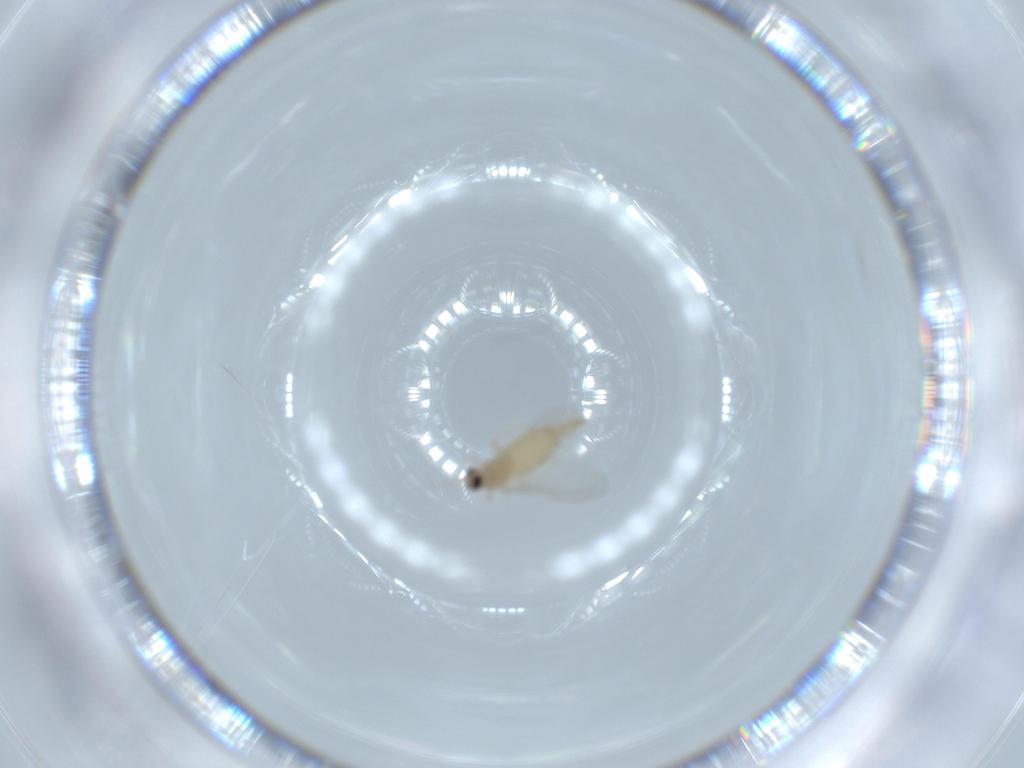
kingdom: Animalia
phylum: Arthropoda
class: Insecta
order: Diptera
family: Cecidomyiidae
